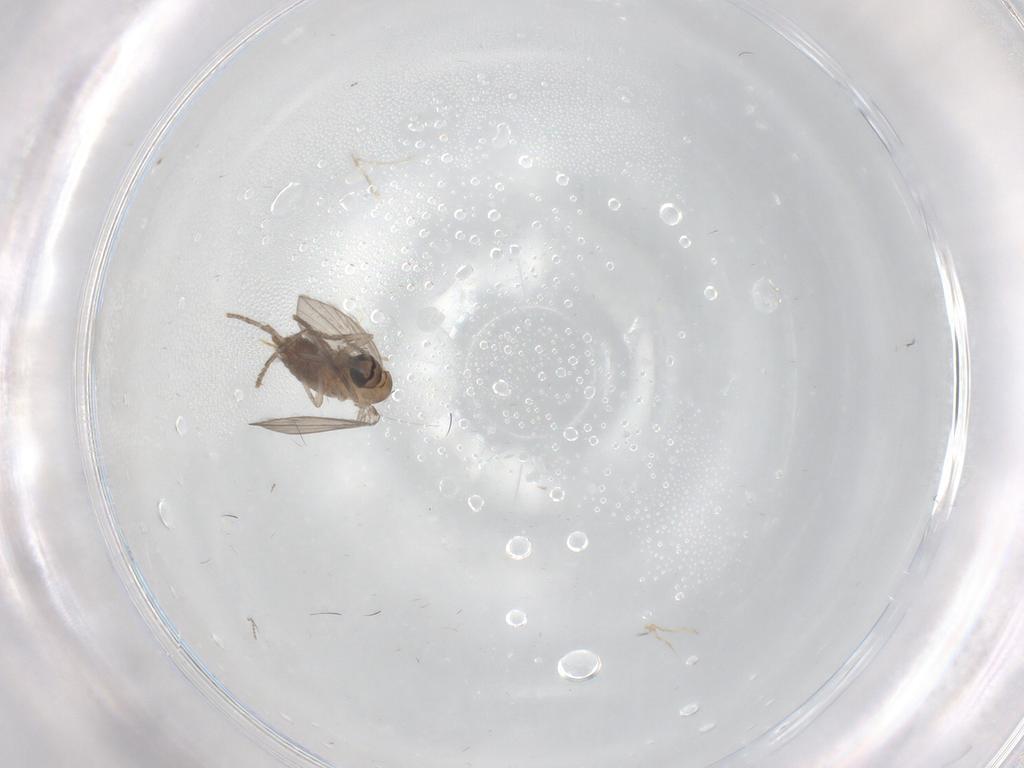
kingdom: Animalia
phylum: Arthropoda
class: Insecta
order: Diptera
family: Psychodidae
